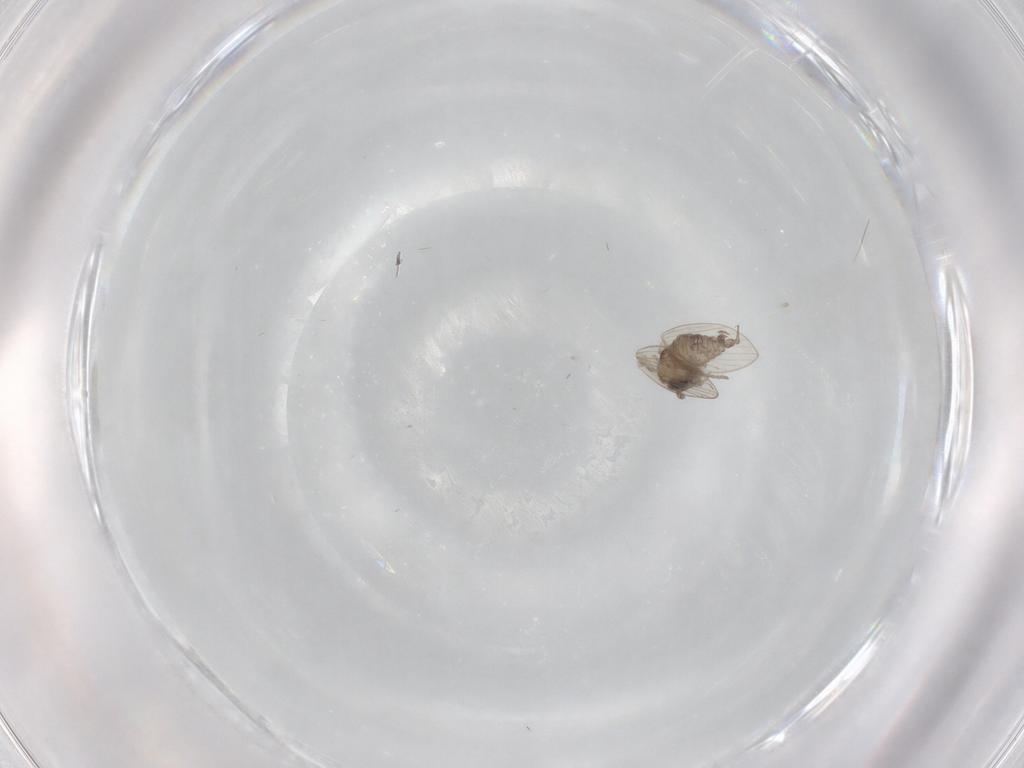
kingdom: Animalia
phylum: Arthropoda
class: Insecta
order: Diptera
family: Psychodidae
